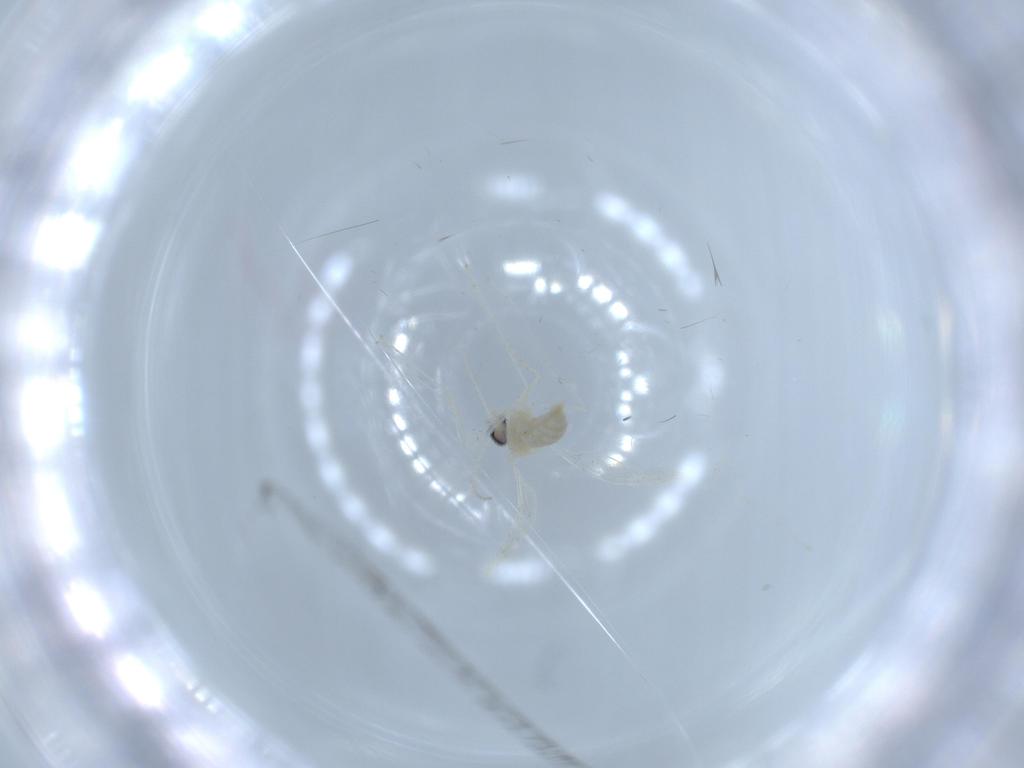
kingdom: Animalia
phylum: Arthropoda
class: Insecta
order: Diptera
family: Cecidomyiidae
